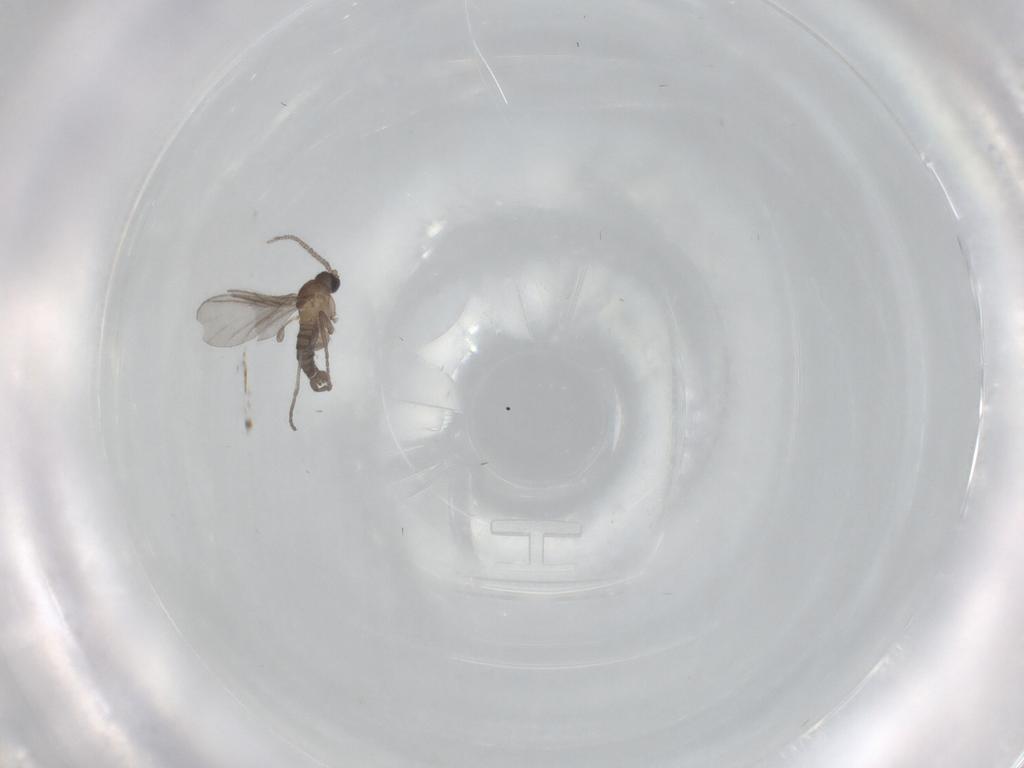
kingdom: Animalia
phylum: Arthropoda
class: Insecta
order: Diptera
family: Sciaridae
